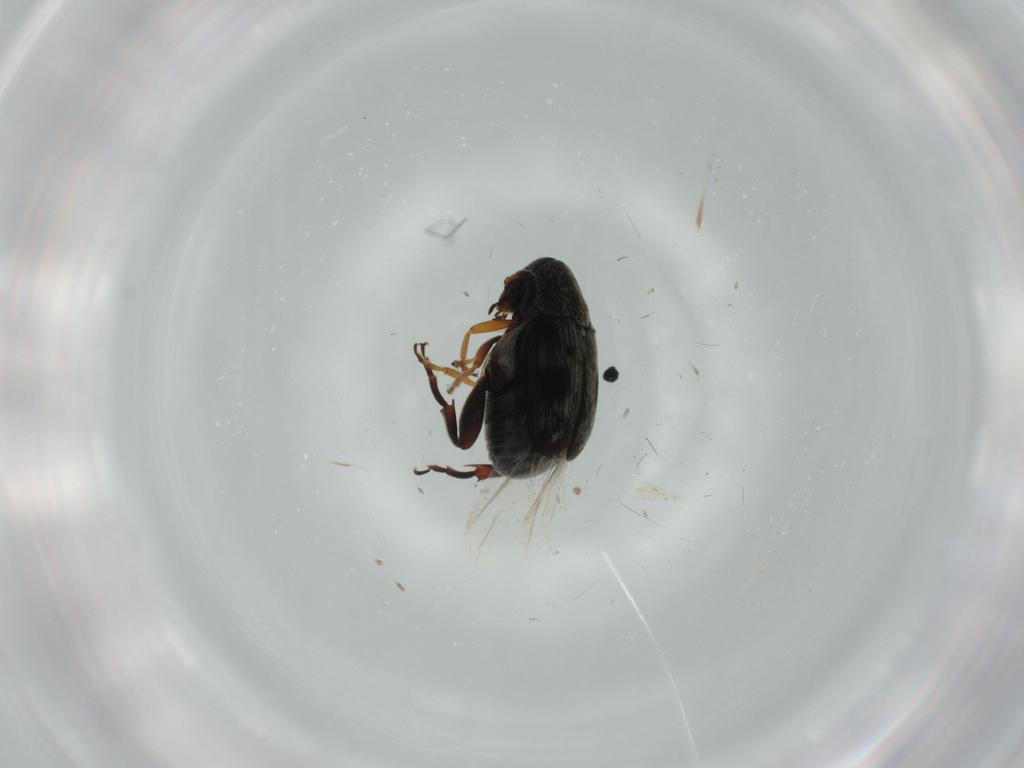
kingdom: Animalia
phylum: Arthropoda
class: Insecta
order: Coleoptera
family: Chrysomelidae
